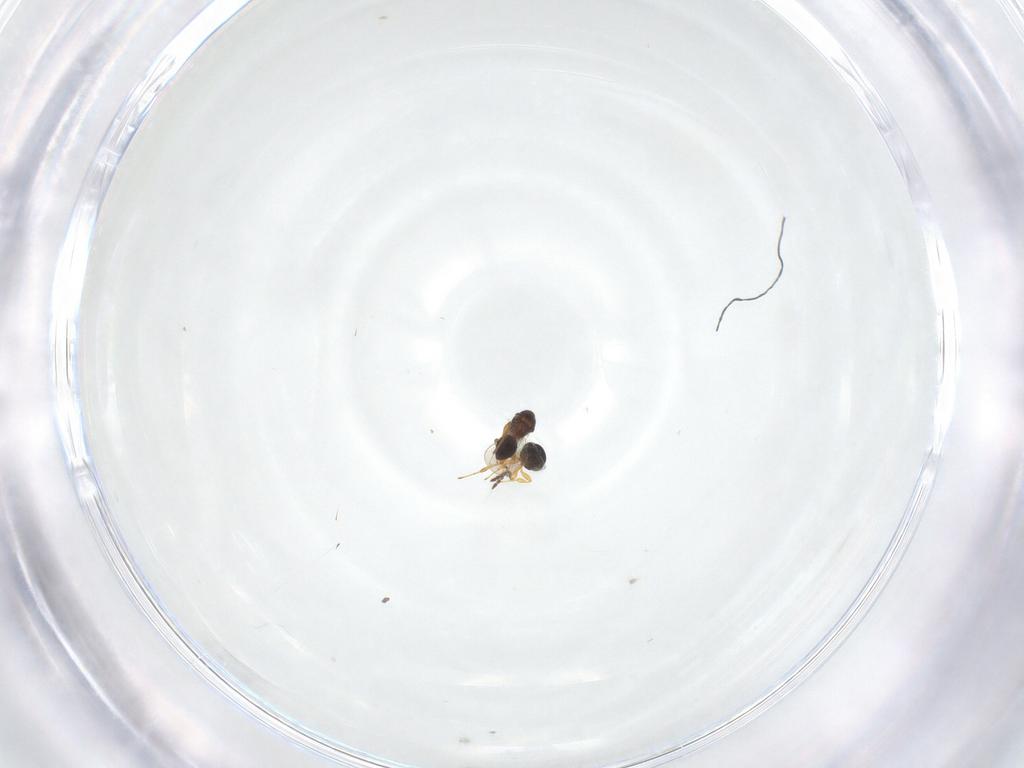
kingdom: Animalia
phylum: Arthropoda
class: Insecta
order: Hymenoptera
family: Platygastridae
